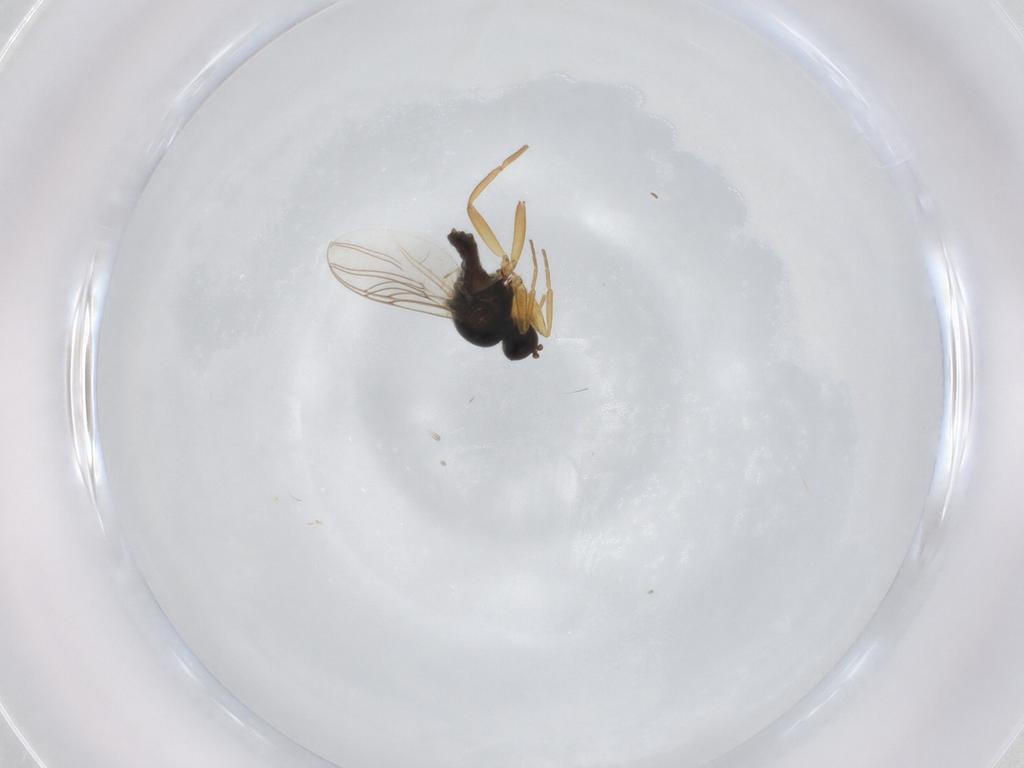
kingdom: Animalia
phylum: Arthropoda
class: Insecta
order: Diptera
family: Hybotidae
